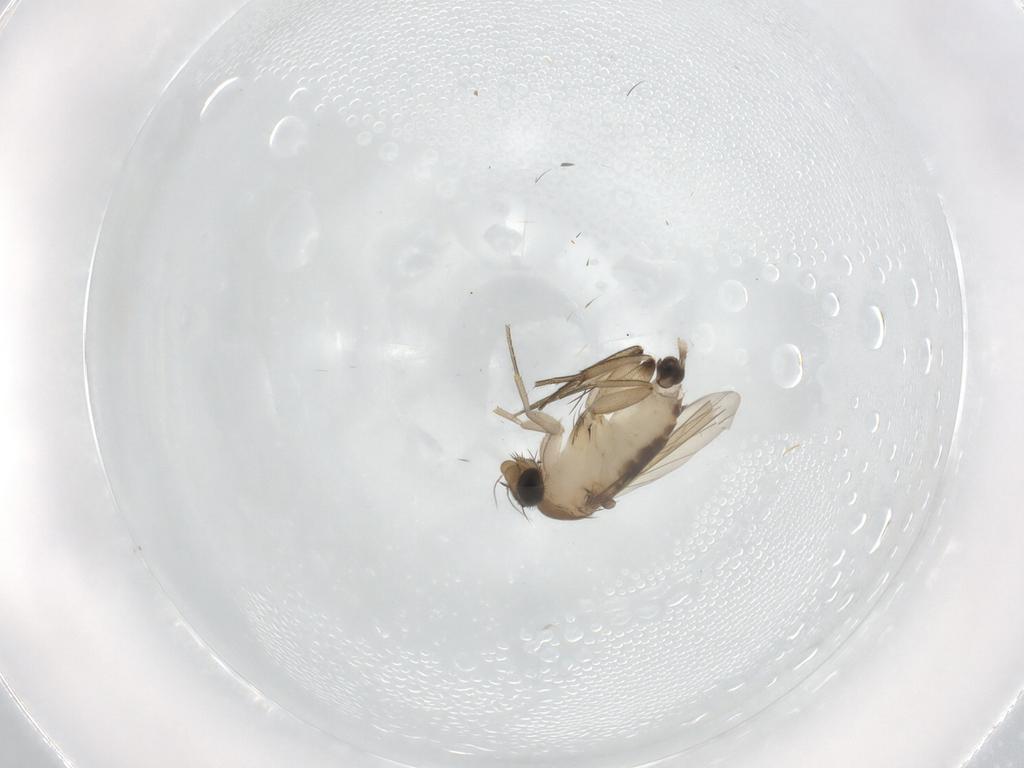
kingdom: Animalia
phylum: Arthropoda
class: Insecta
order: Diptera
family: Phoridae
